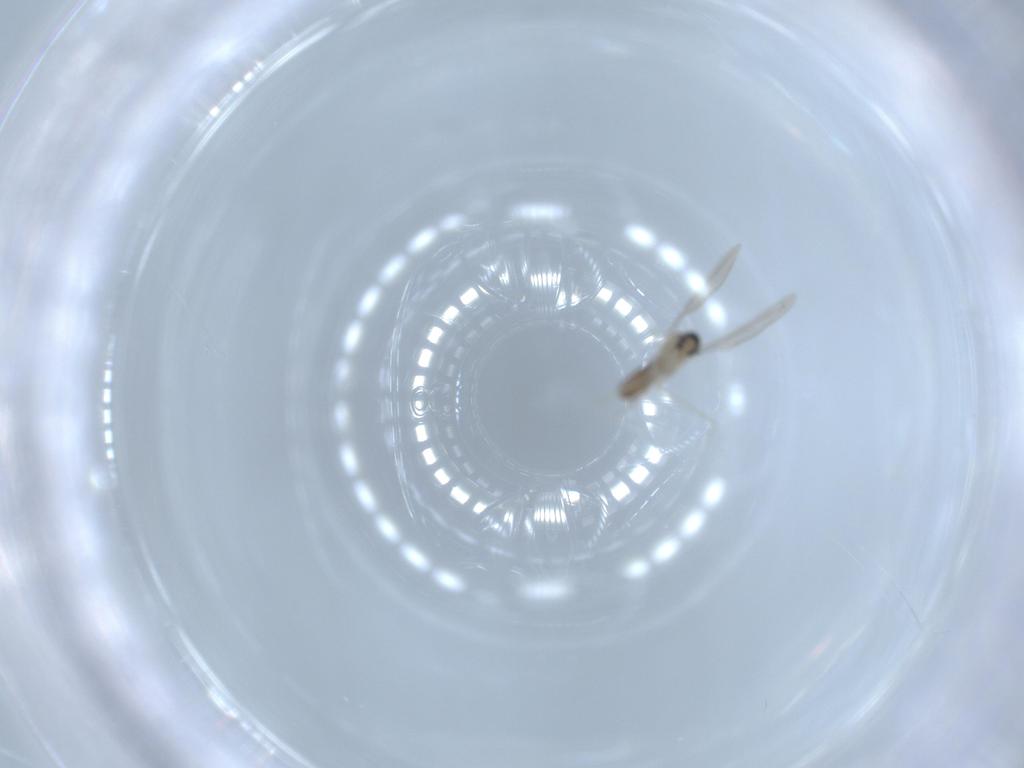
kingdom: Animalia
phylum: Arthropoda
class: Insecta
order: Diptera
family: Cecidomyiidae
